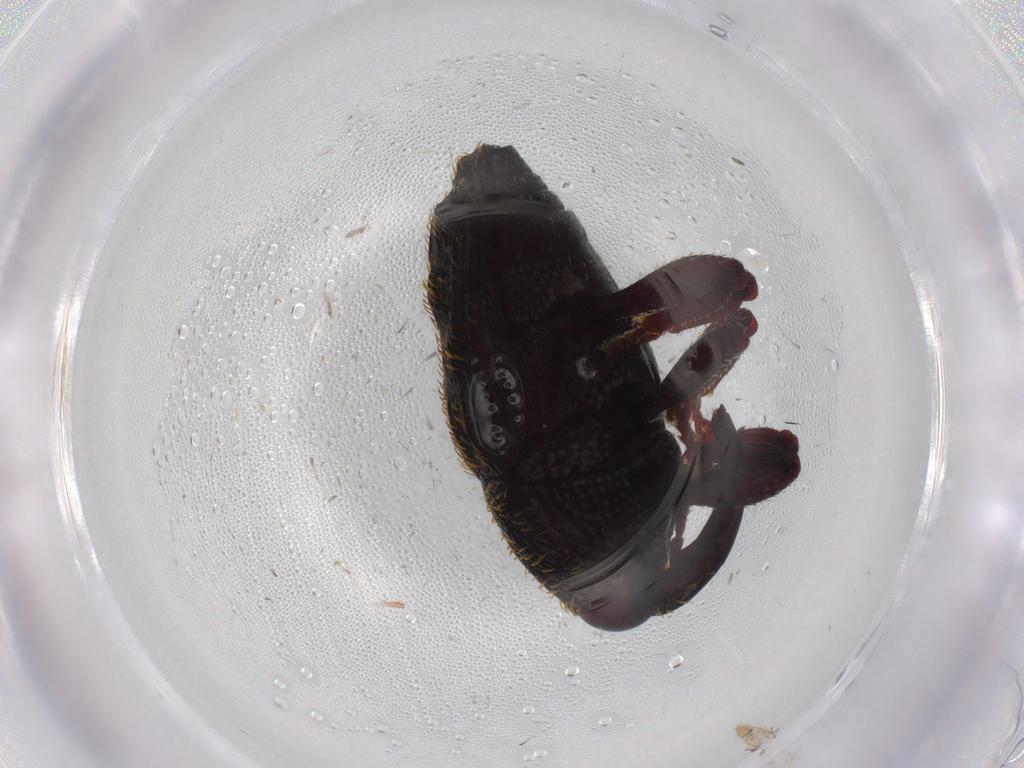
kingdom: Animalia
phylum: Arthropoda
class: Insecta
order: Coleoptera
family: Curculionidae
